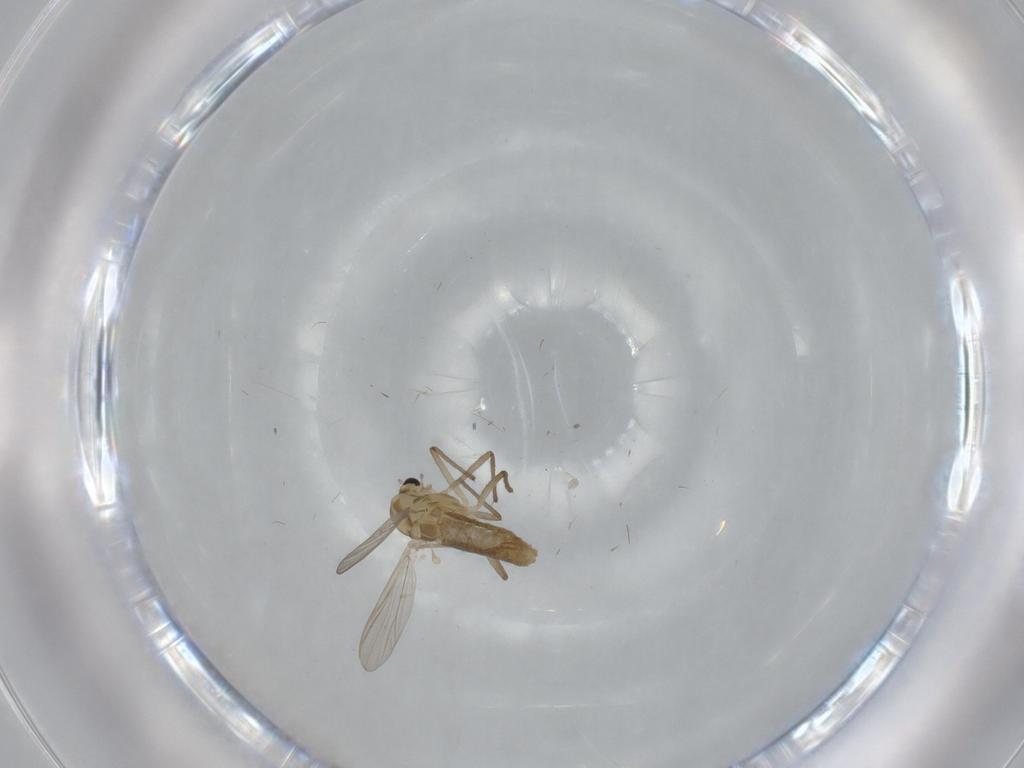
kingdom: Animalia
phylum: Arthropoda
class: Insecta
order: Diptera
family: Chironomidae
